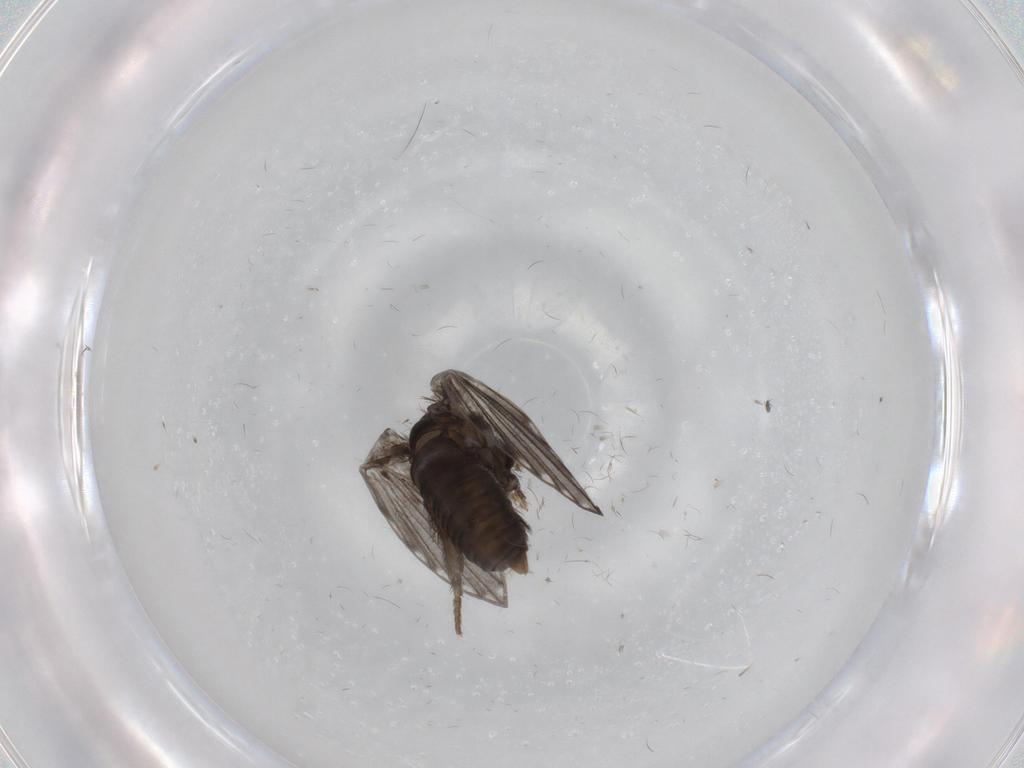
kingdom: Animalia
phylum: Arthropoda
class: Insecta
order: Diptera
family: Psychodidae
